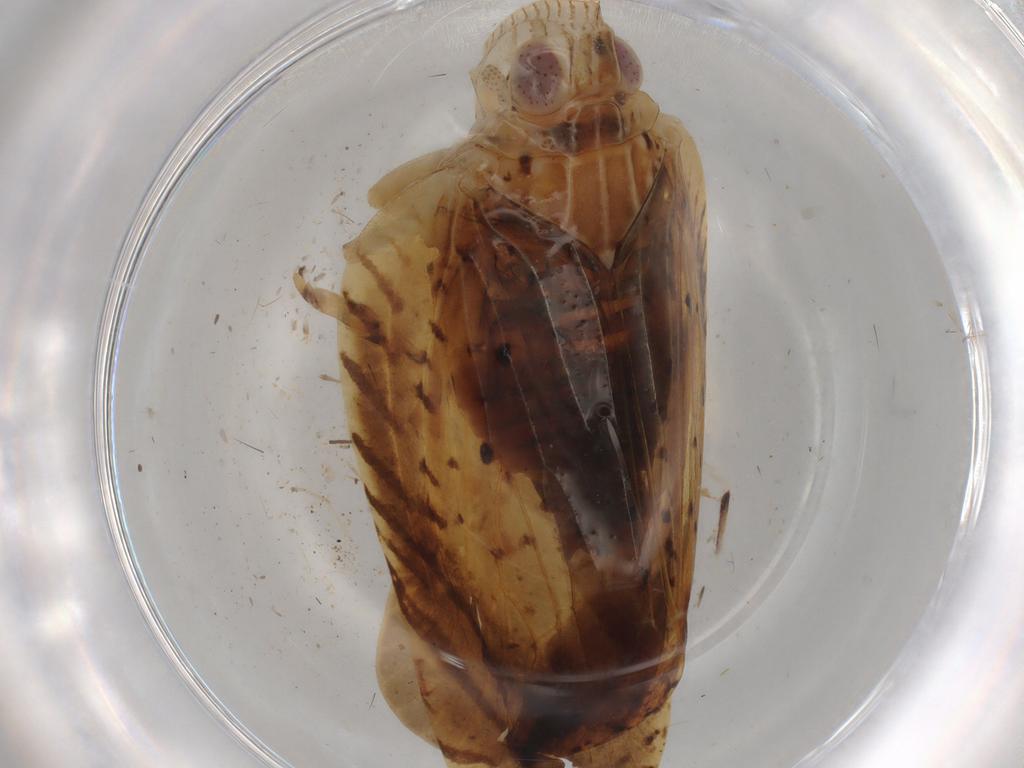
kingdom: Animalia
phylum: Arthropoda
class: Insecta
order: Hemiptera
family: Lophopidae
